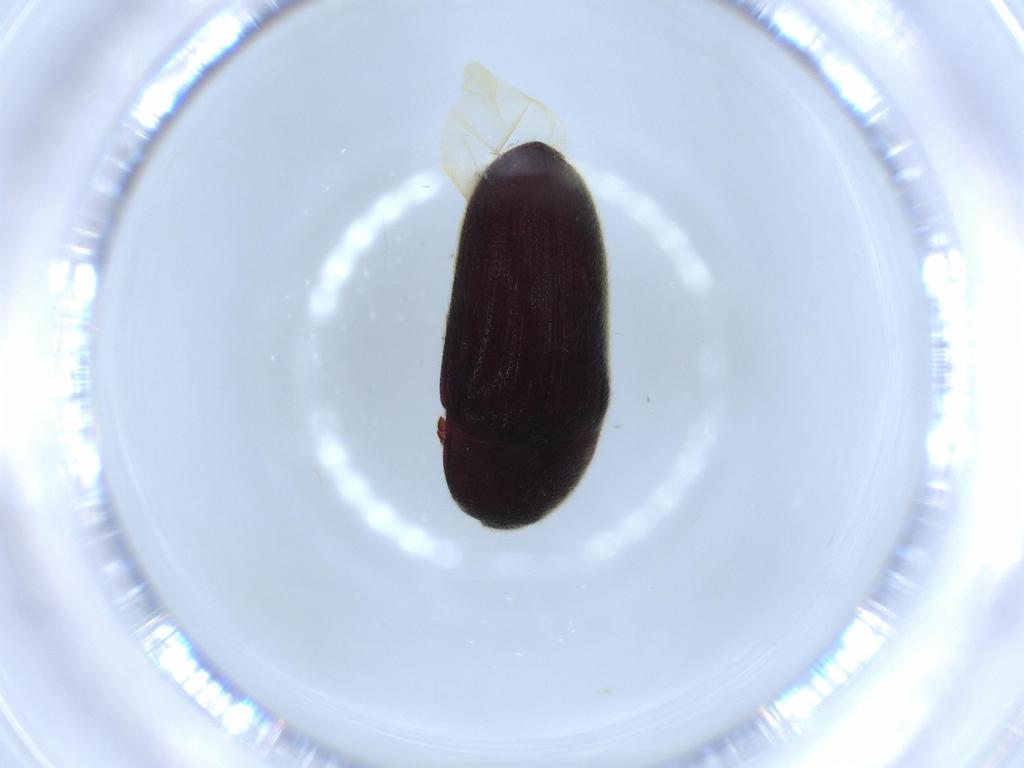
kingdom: Animalia
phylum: Arthropoda
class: Insecta
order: Coleoptera
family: Throscidae
